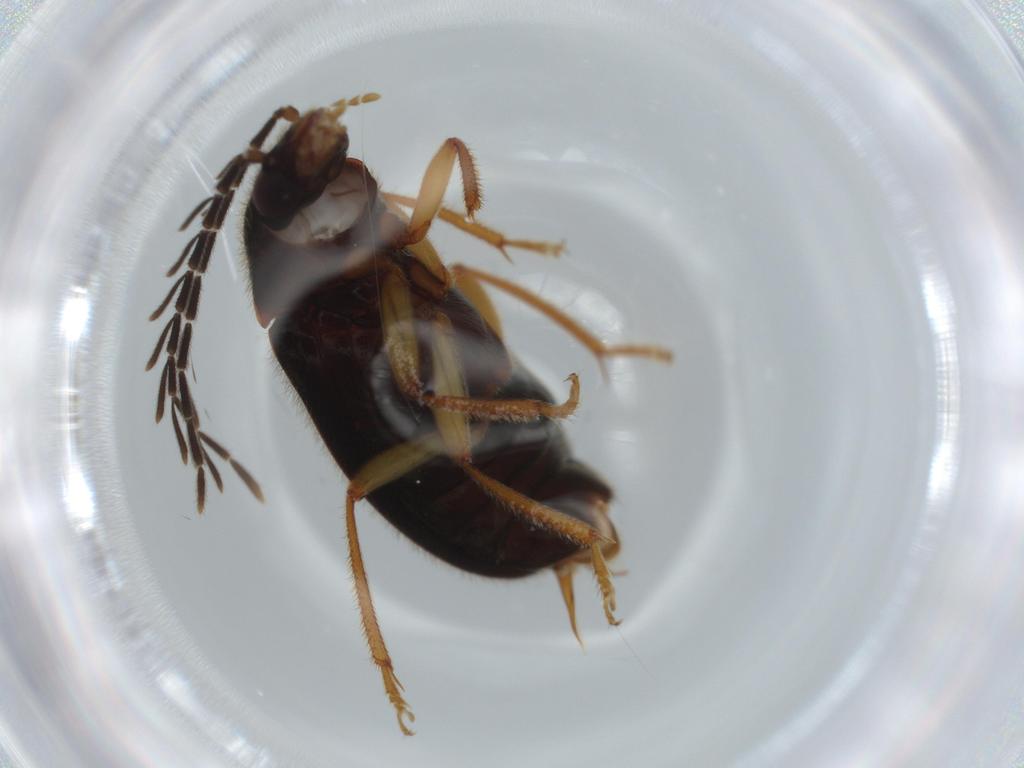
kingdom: Animalia
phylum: Arthropoda
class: Insecta
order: Coleoptera
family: Ptilodactylidae
